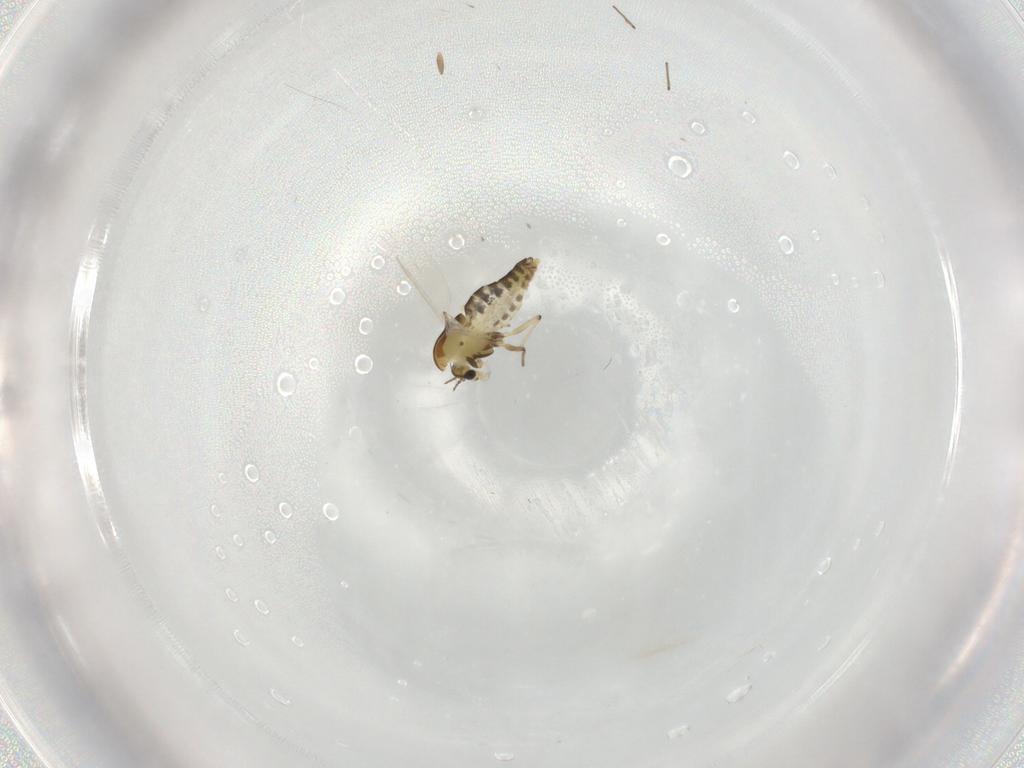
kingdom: Animalia
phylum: Arthropoda
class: Insecta
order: Diptera
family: Chironomidae
